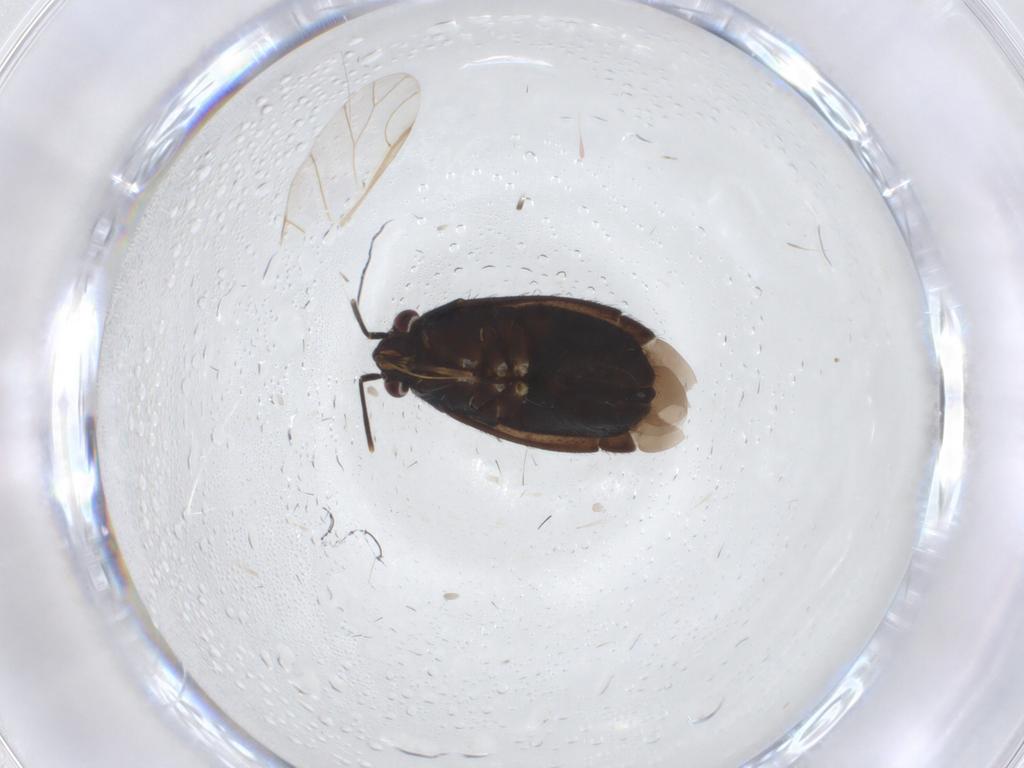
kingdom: Animalia
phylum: Arthropoda
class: Insecta
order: Hemiptera
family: Miridae
